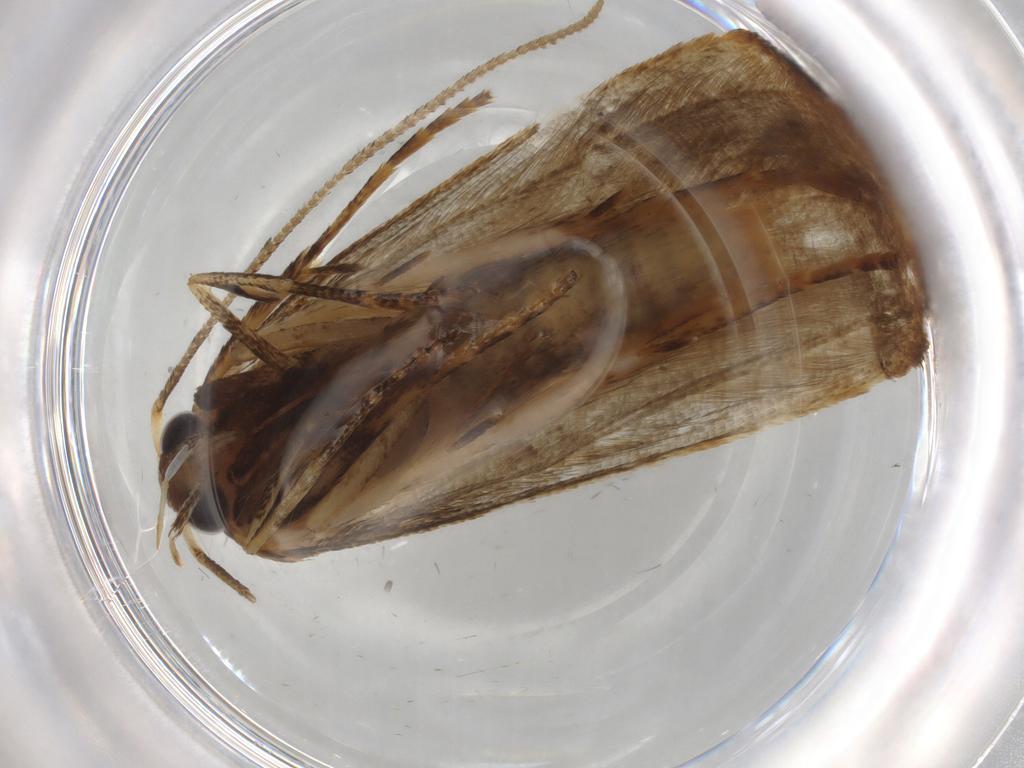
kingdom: Animalia
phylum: Arthropoda
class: Insecta
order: Lepidoptera
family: Blastobasidae
